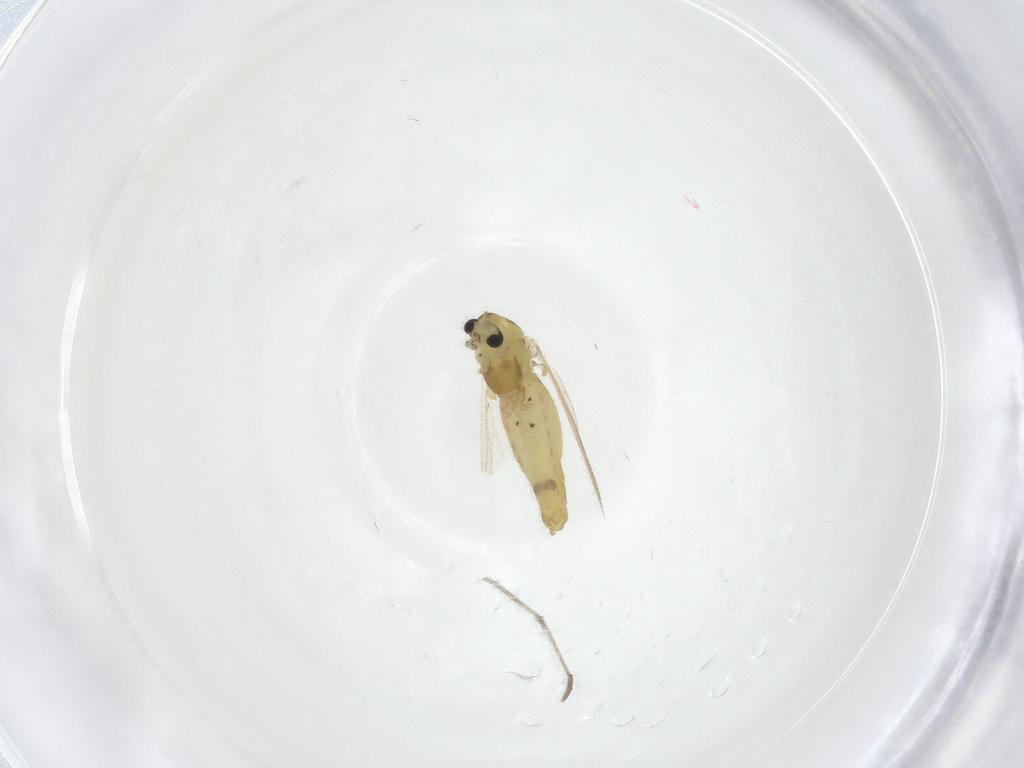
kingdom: Animalia
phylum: Arthropoda
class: Insecta
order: Diptera
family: Chironomidae
